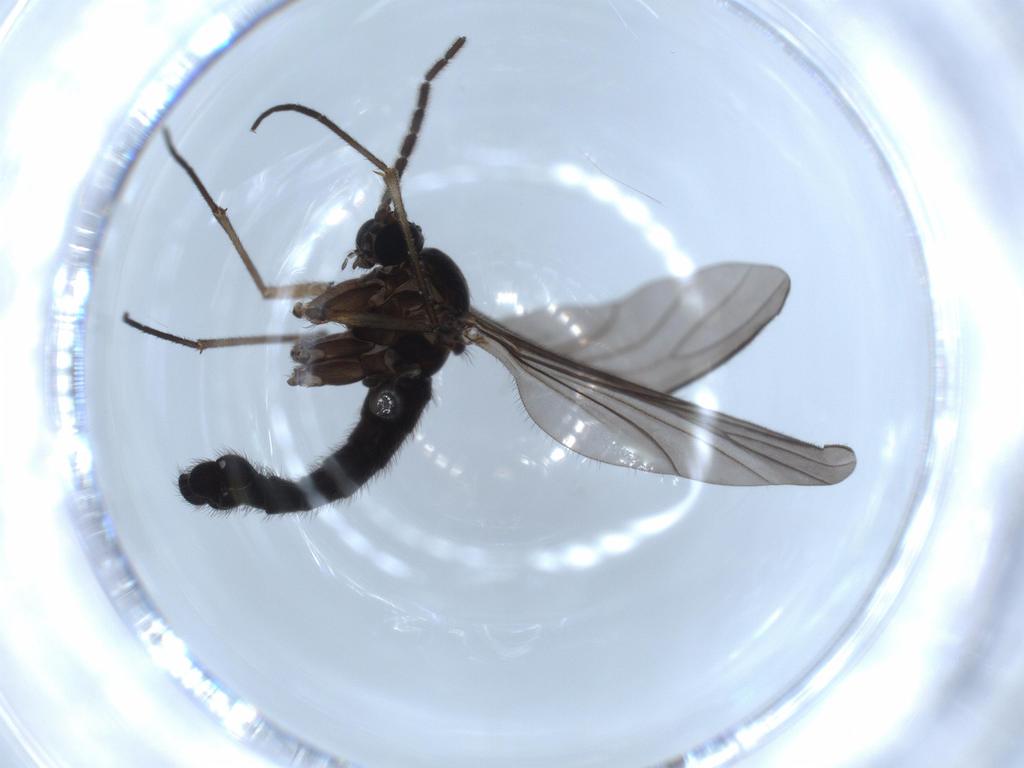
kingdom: Animalia
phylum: Arthropoda
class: Insecta
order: Diptera
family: Sciaridae
